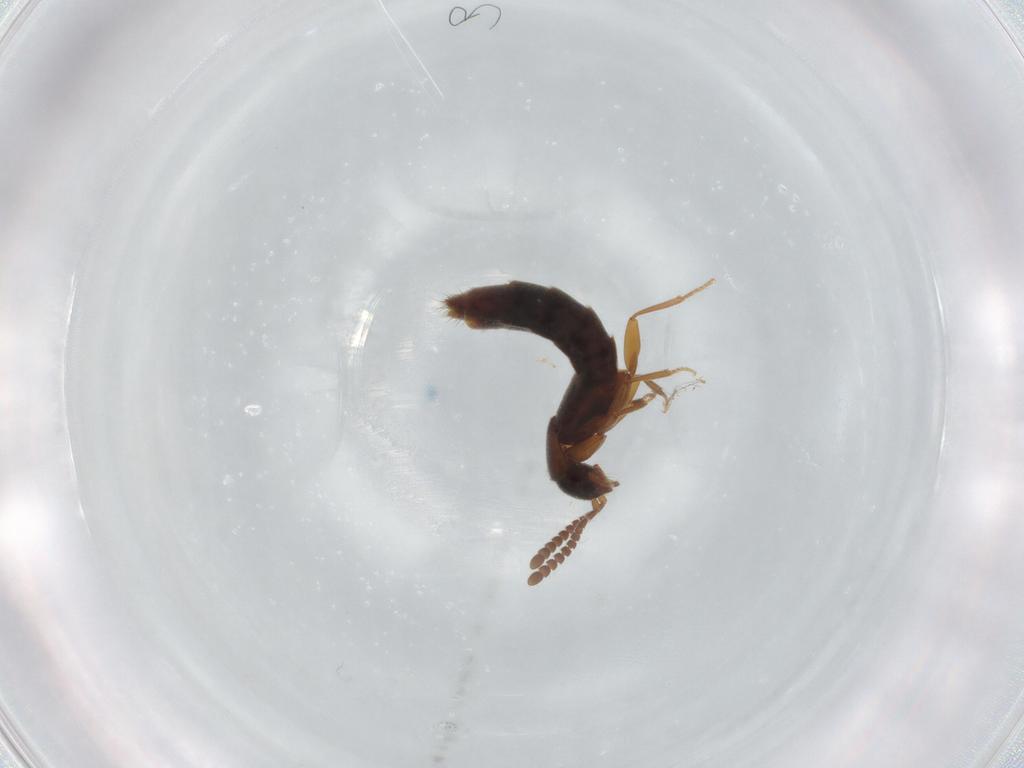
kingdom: Animalia
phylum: Arthropoda
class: Insecta
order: Coleoptera
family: Staphylinidae
